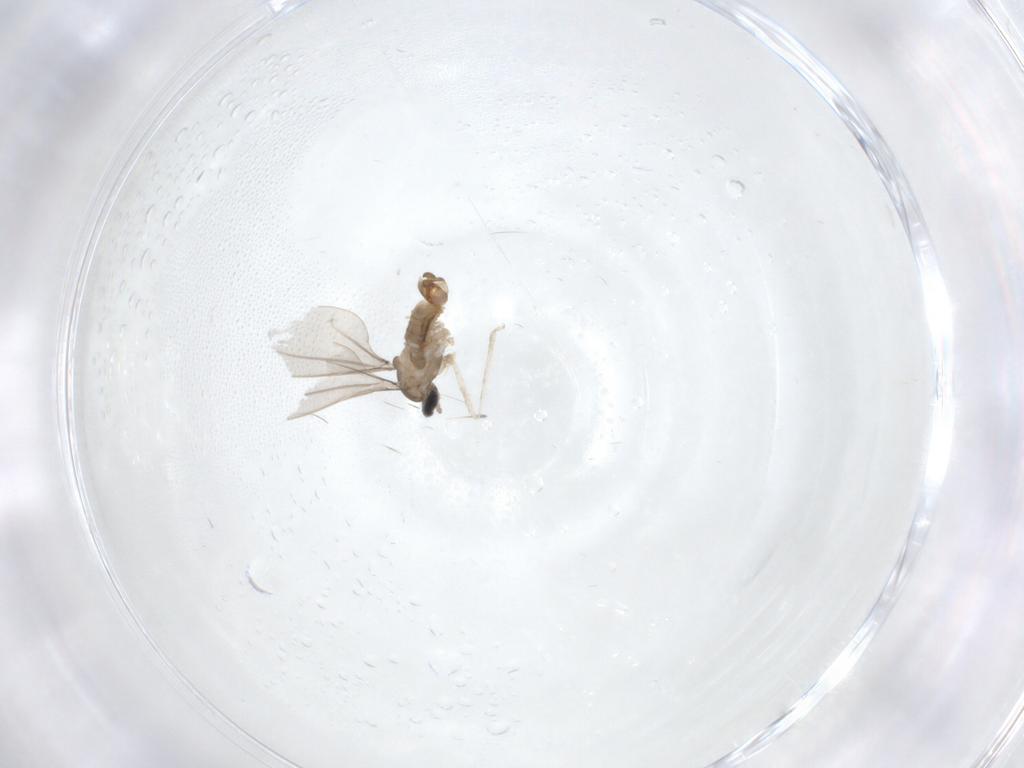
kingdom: Animalia
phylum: Arthropoda
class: Insecta
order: Diptera
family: Cecidomyiidae
